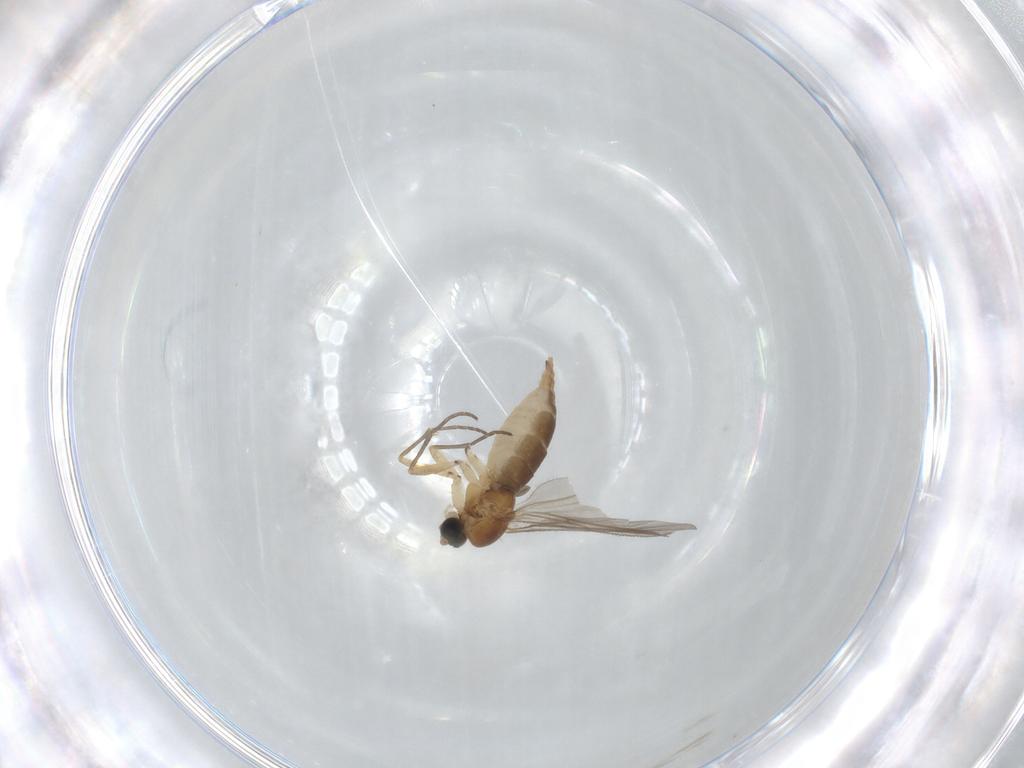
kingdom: Animalia
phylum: Arthropoda
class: Insecta
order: Diptera
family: Sciaridae
